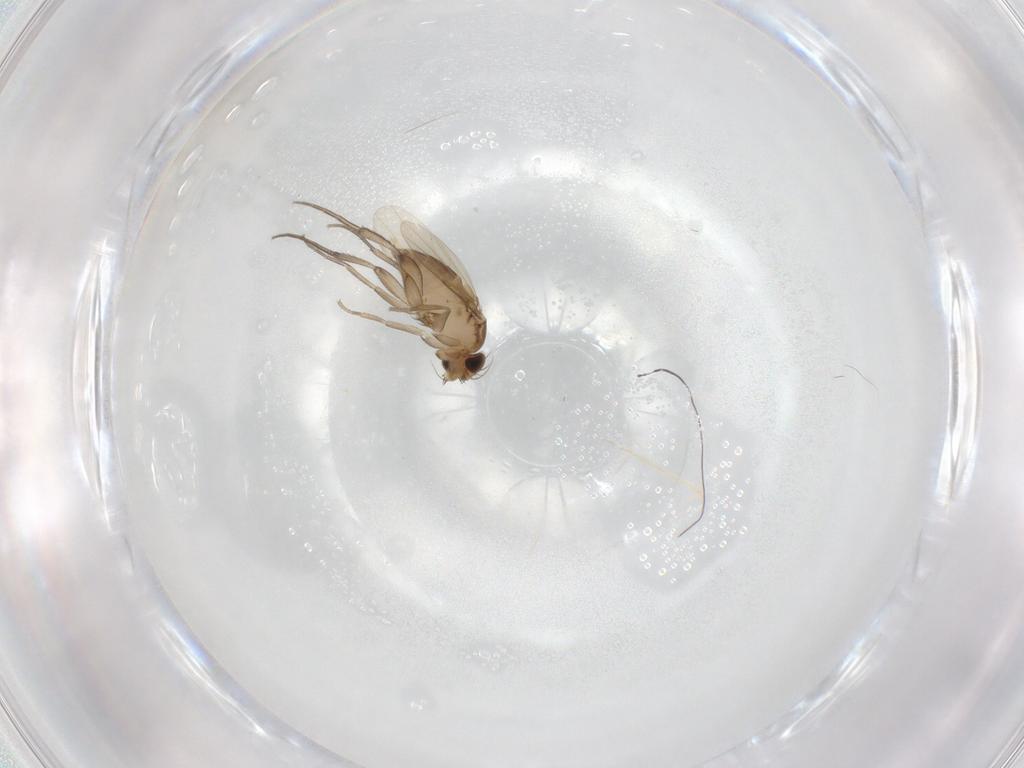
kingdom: Animalia
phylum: Arthropoda
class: Insecta
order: Diptera
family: Phoridae
